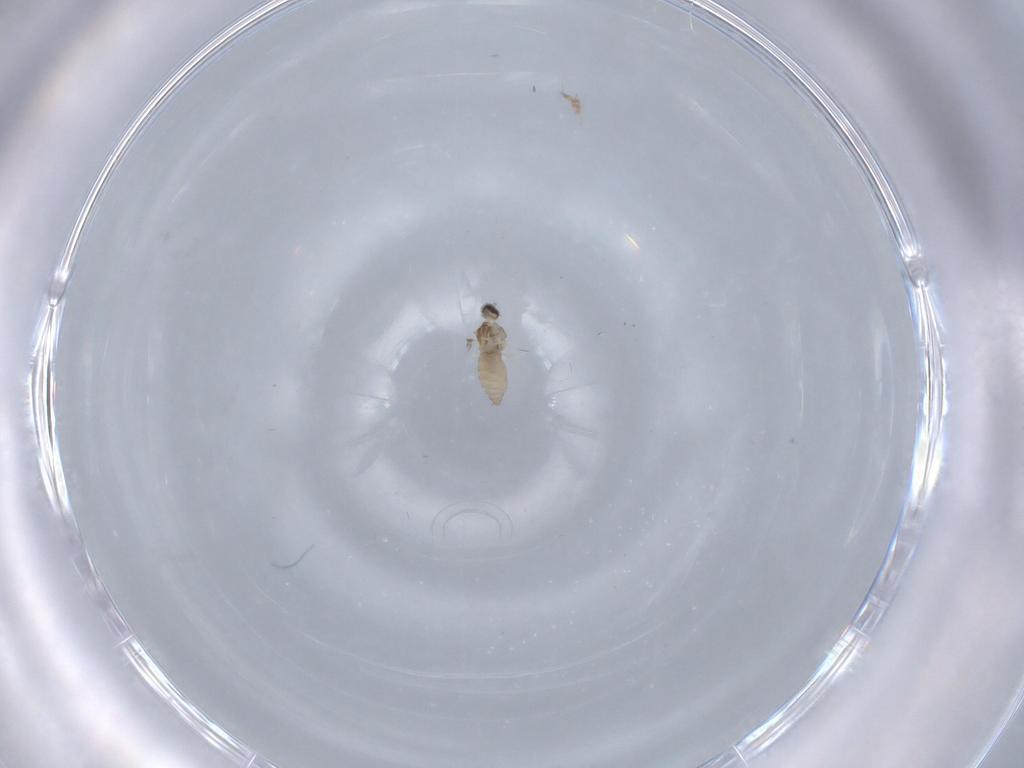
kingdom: Animalia
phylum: Arthropoda
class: Insecta
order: Diptera
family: Cecidomyiidae
